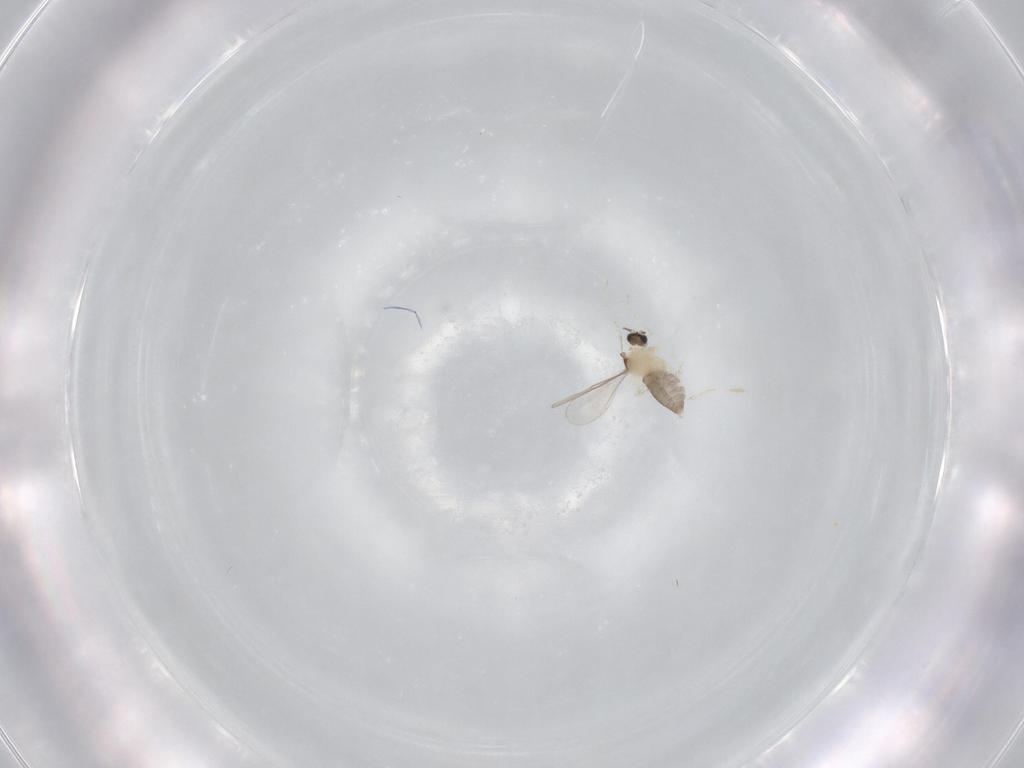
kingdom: Animalia
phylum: Arthropoda
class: Insecta
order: Diptera
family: Cecidomyiidae
